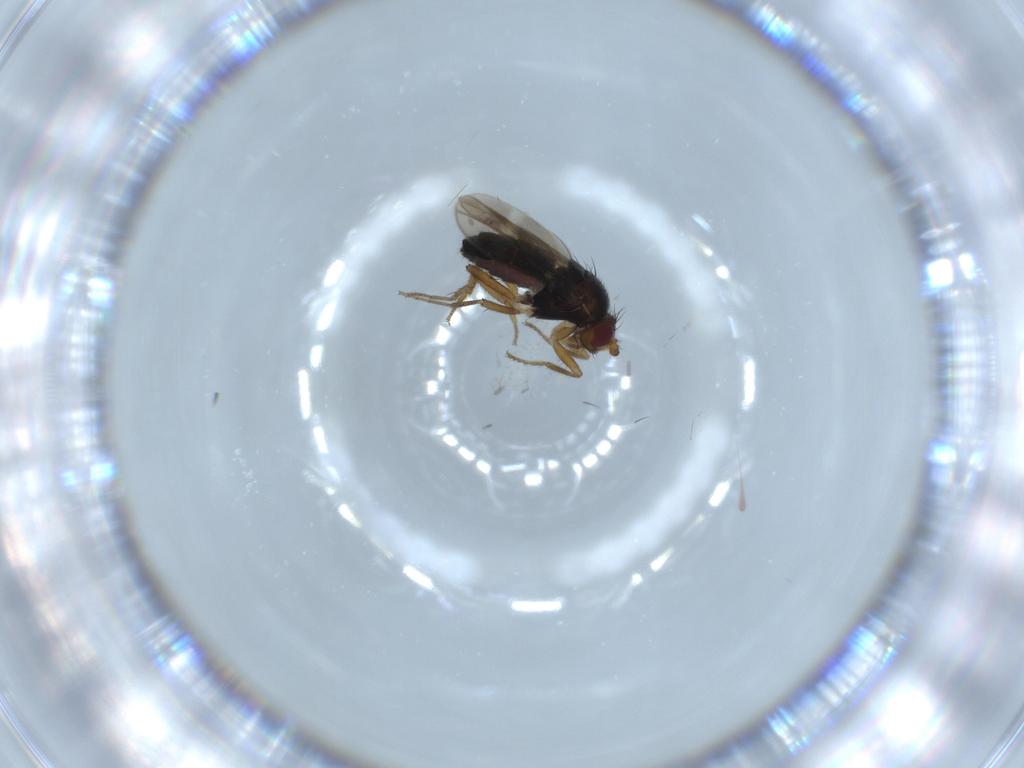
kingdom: Animalia
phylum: Arthropoda
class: Insecta
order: Diptera
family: Sphaeroceridae
